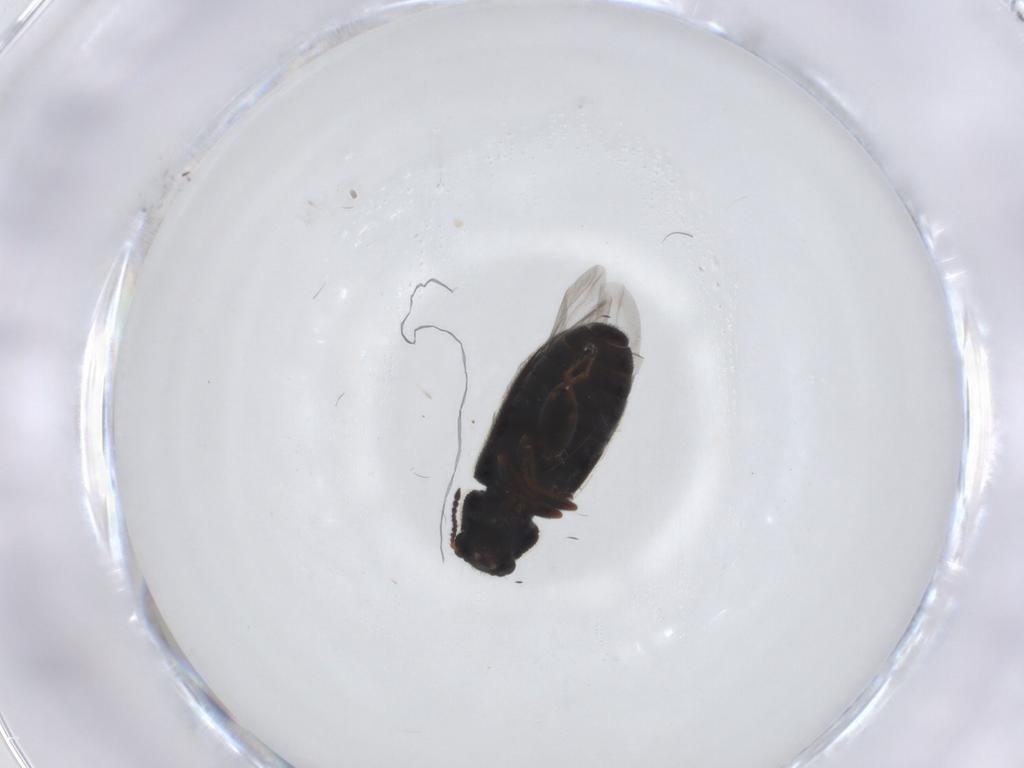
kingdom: Animalia
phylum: Arthropoda
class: Insecta
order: Coleoptera
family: Melyridae
